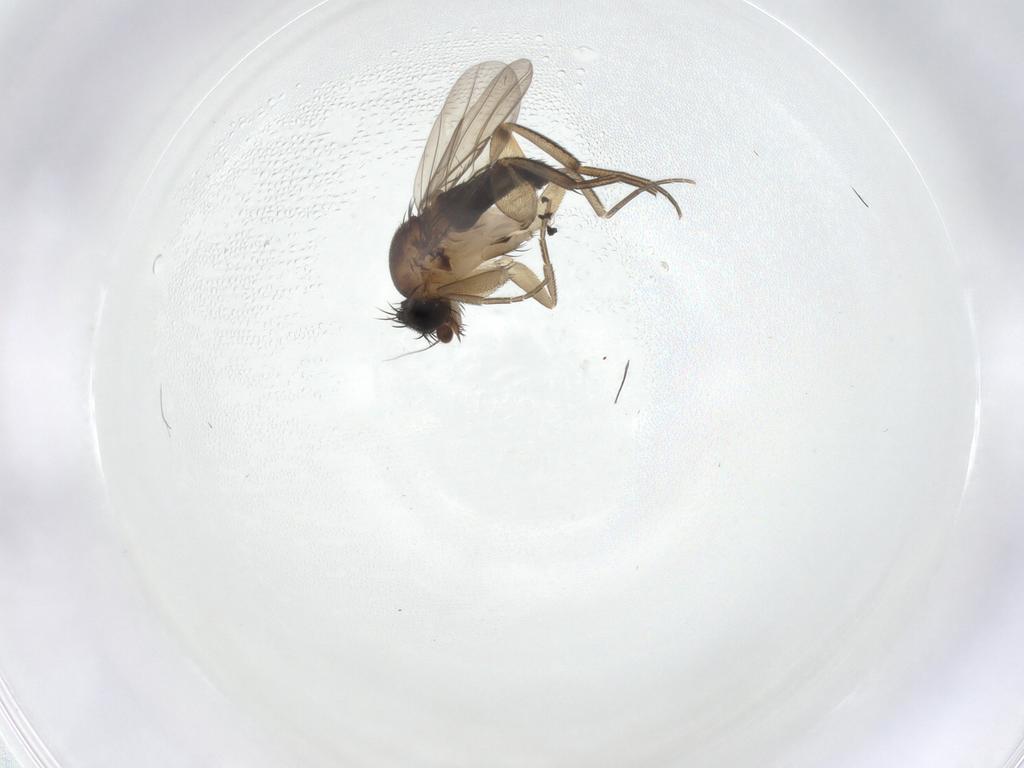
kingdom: Animalia
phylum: Arthropoda
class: Insecta
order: Diptera
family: Phoridae
